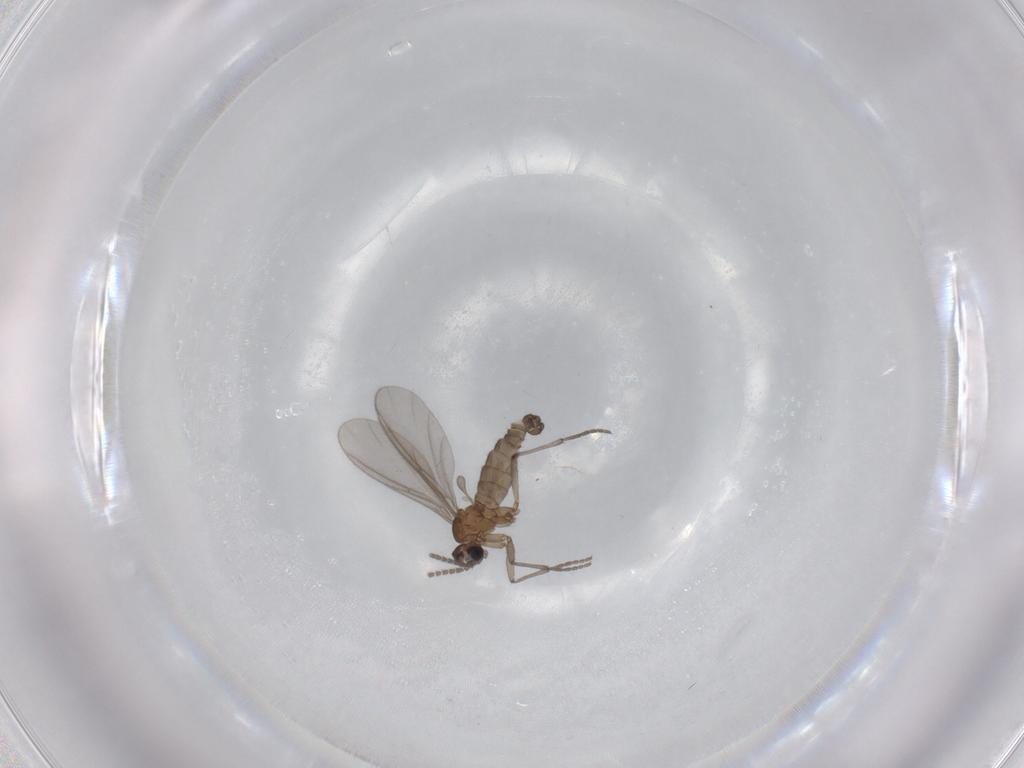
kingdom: Animalia
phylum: Arthropoda
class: Insecta
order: Diptera
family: Sciaridae
